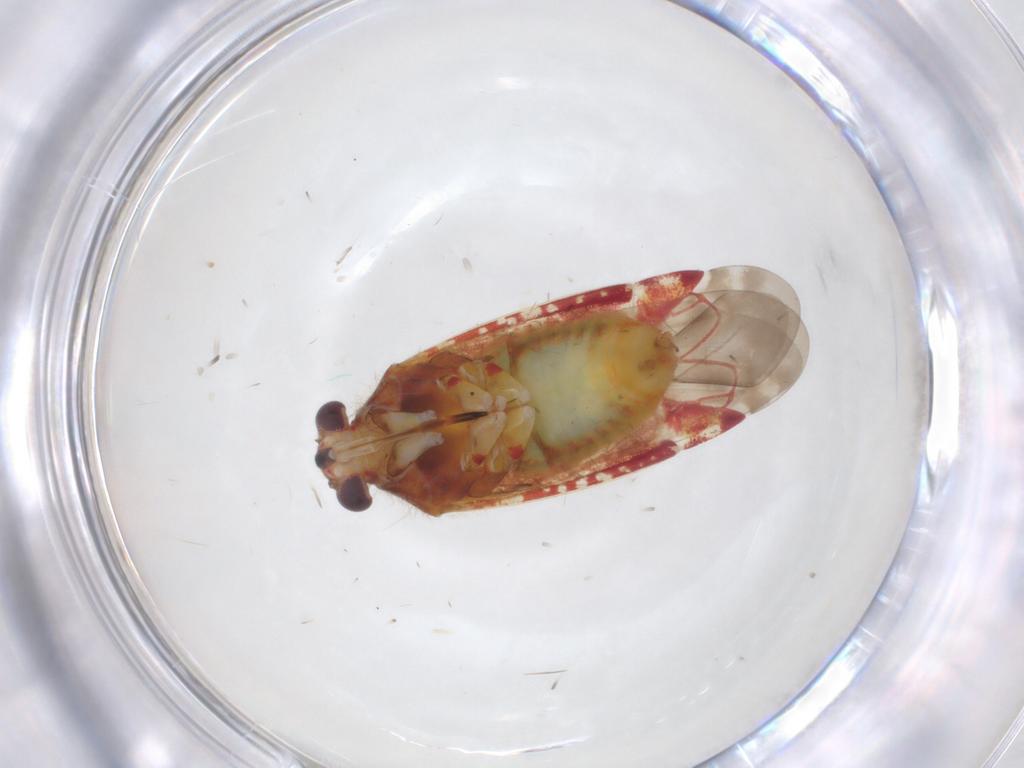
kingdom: Animalia
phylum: Arthropoda
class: Insecta
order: Hemiptera
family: Miridae
